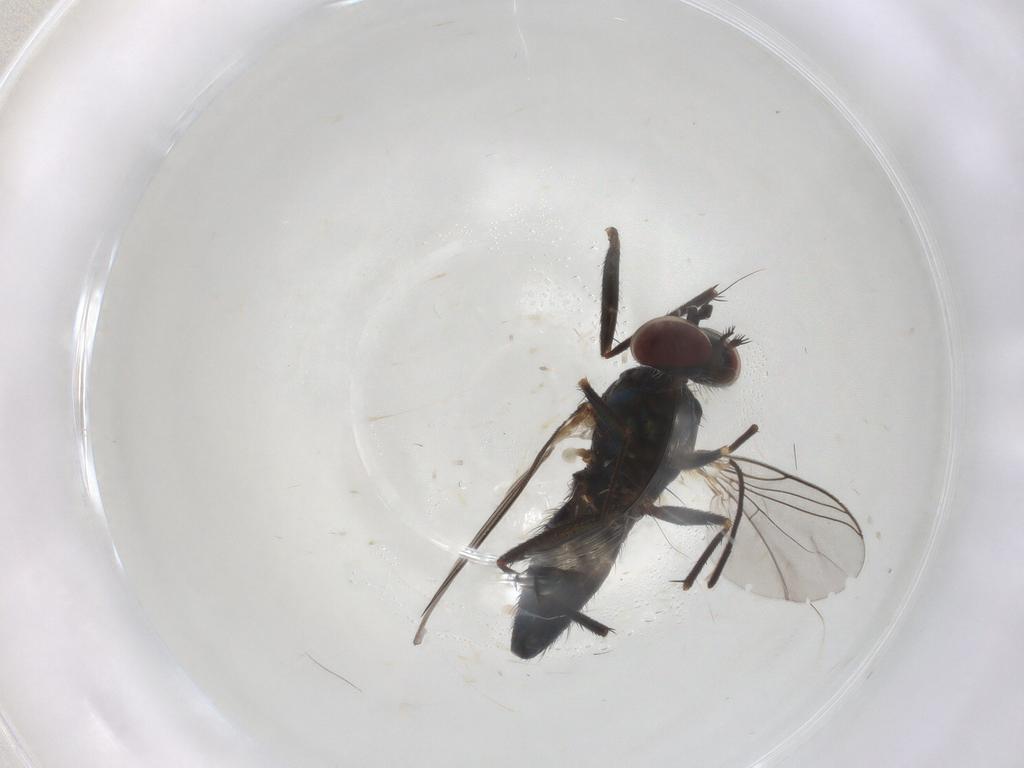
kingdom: Animalia
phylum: Arthropoda
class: Insecta
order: Diptera
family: Dolichopodidae
